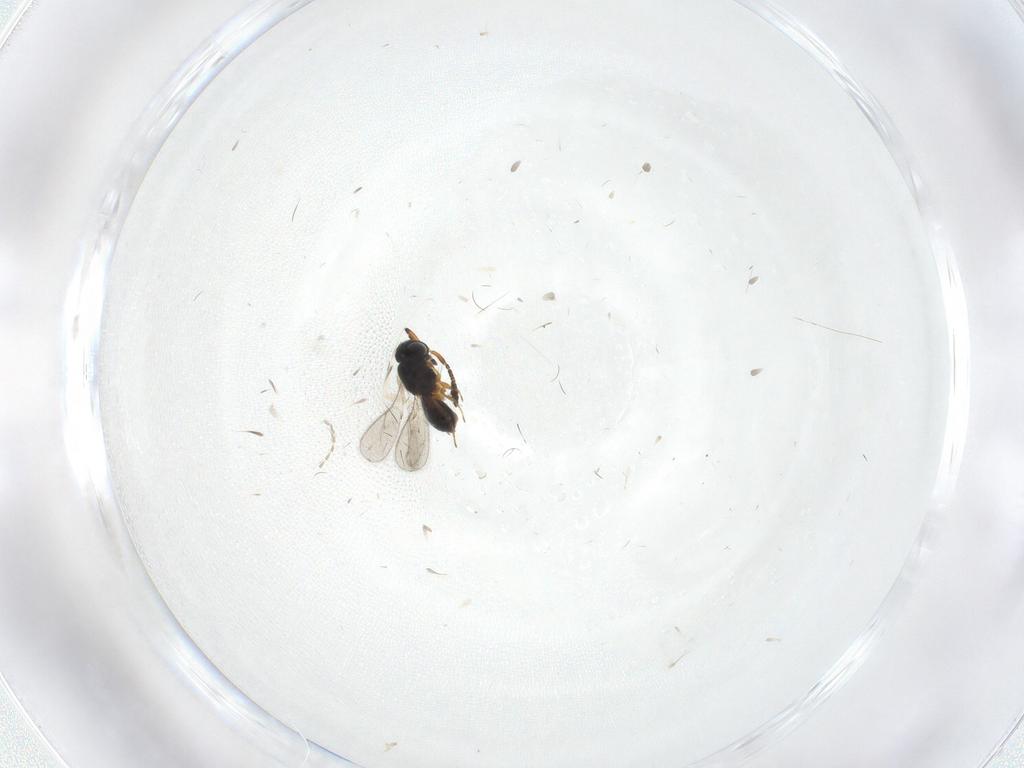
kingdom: Animalia
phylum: Arthropoda
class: Insecta
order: Hymenoptera
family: Scelionidae
